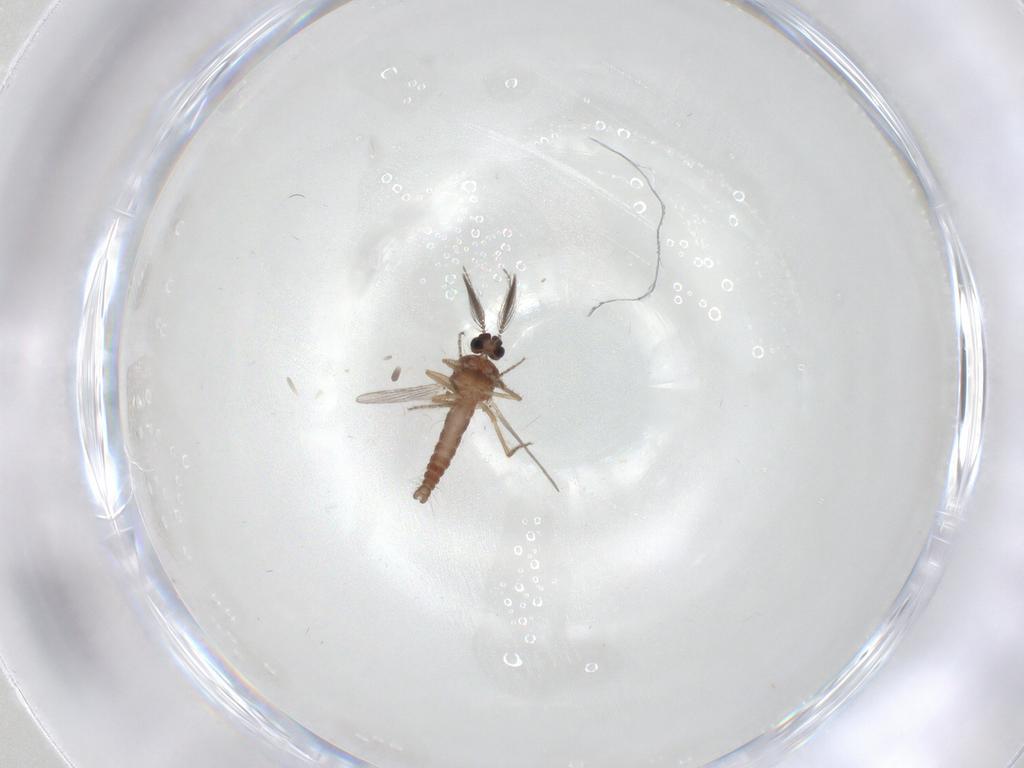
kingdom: Animalia
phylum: Arthropoda
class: Insecta
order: Diptera
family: Ceratopogonidae
